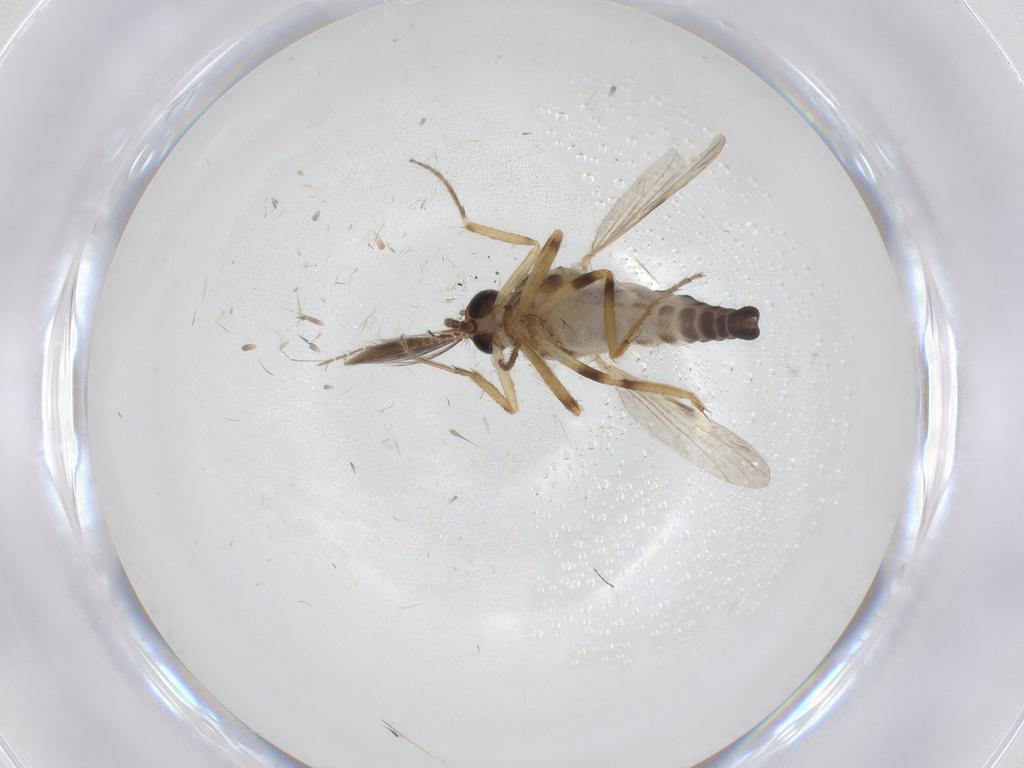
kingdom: Animalia
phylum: Arthropoda
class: Insecta
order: Diptera
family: Ceratopogonidae
